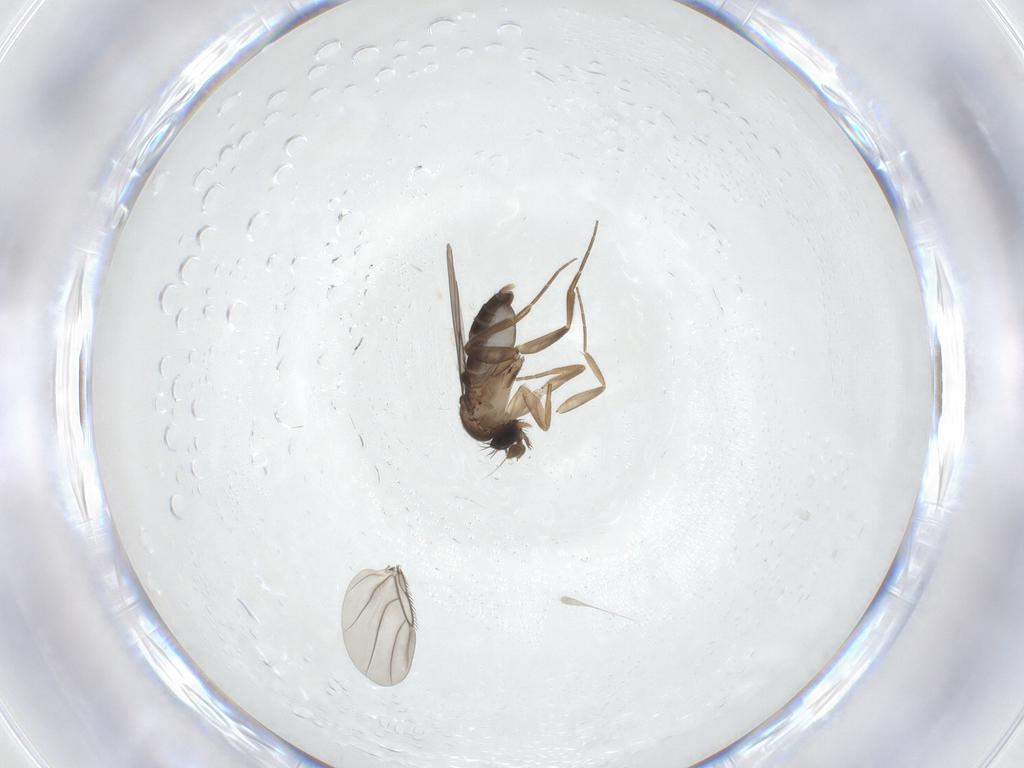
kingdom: Animalia
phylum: Arthropoda
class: Insecta
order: Diptera
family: Phoridae
